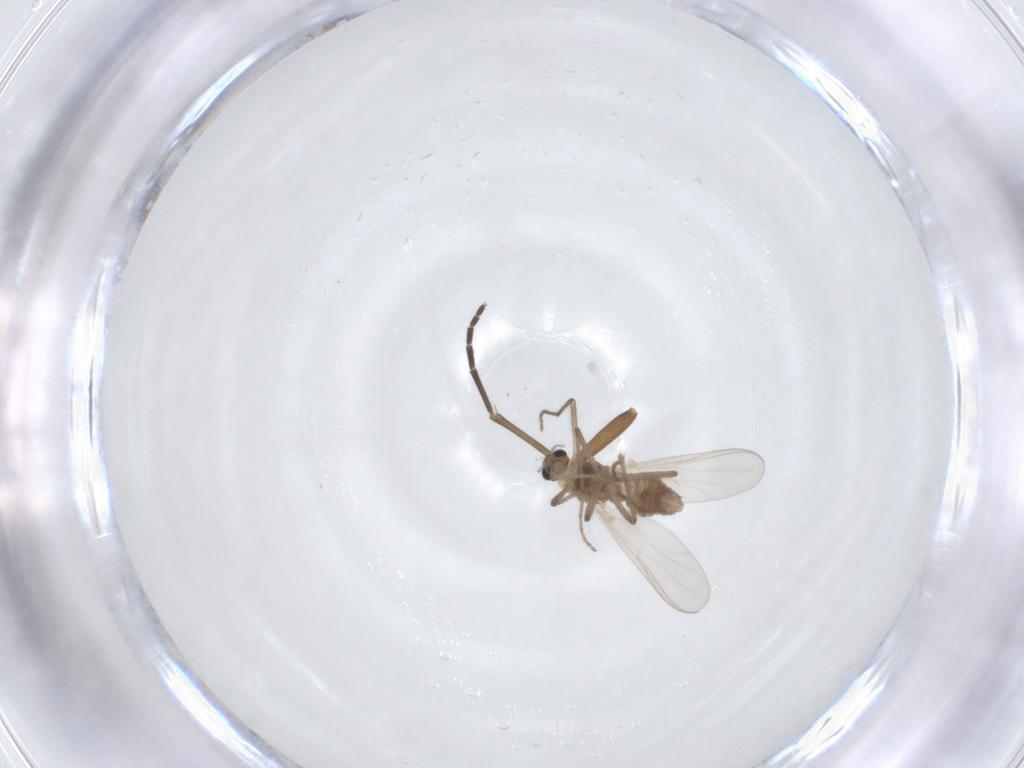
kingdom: Animalia
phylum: Arthropoda
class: Insecta
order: Diptera
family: Chironomidae
